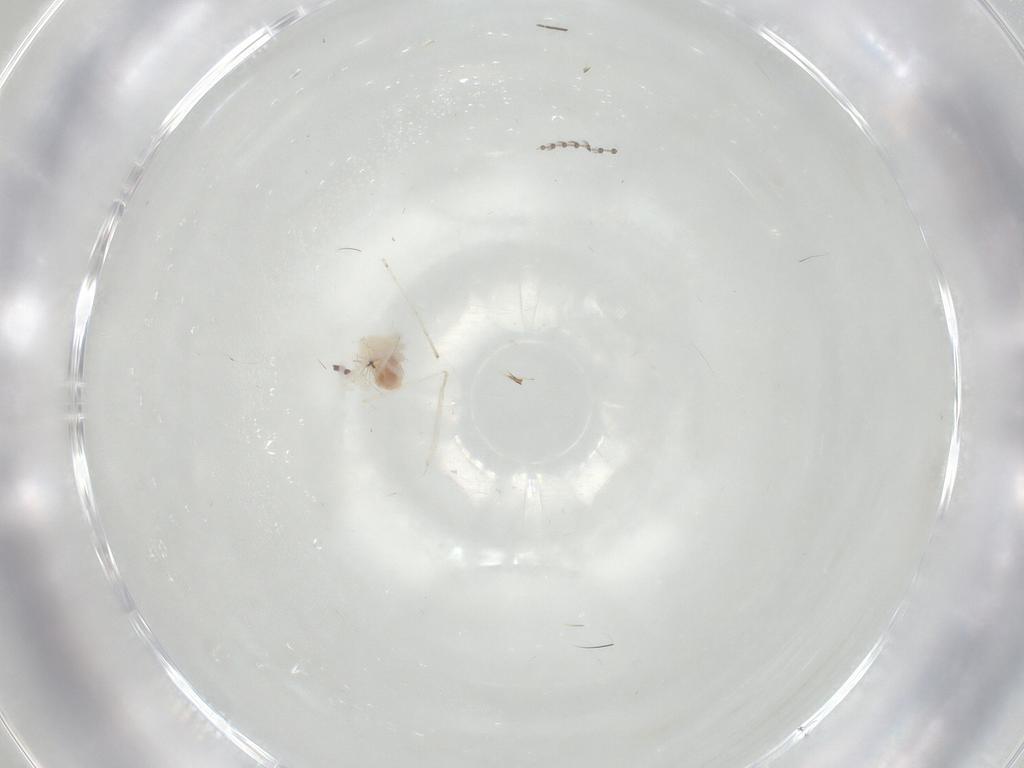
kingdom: Animalia
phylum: Arthropoda
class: Insecta
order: Diptera
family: Cecidomyiidae
